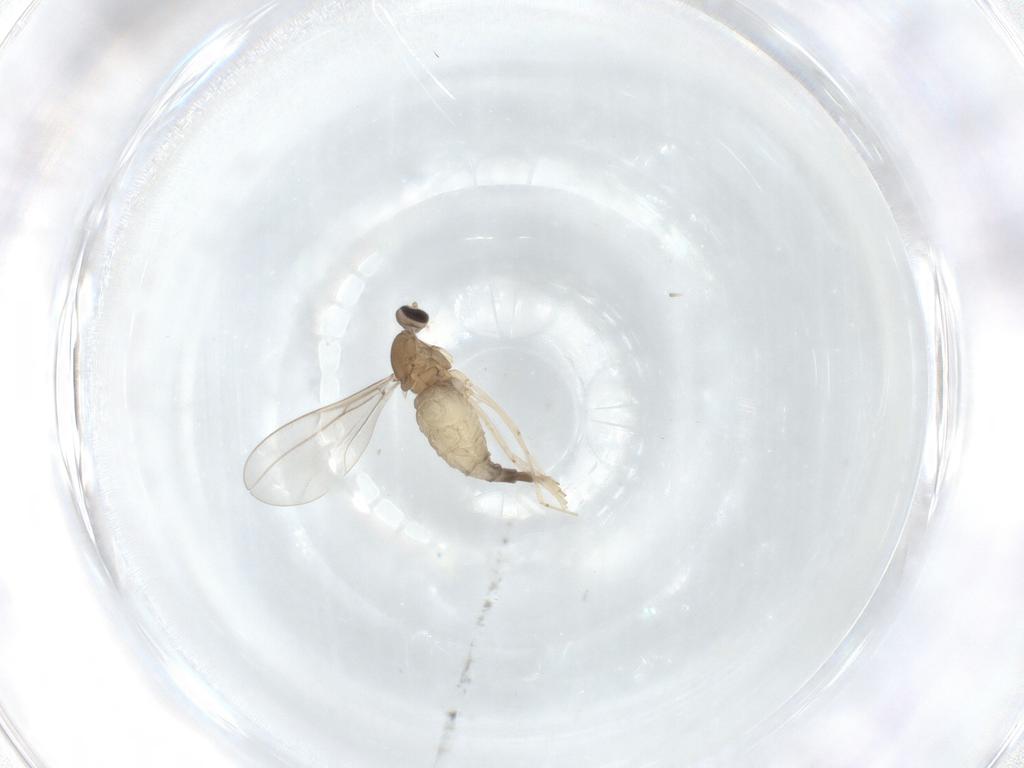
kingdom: Animalia
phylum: Arthropoda
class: Insecta
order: Diptera
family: Cecidomyiidae
